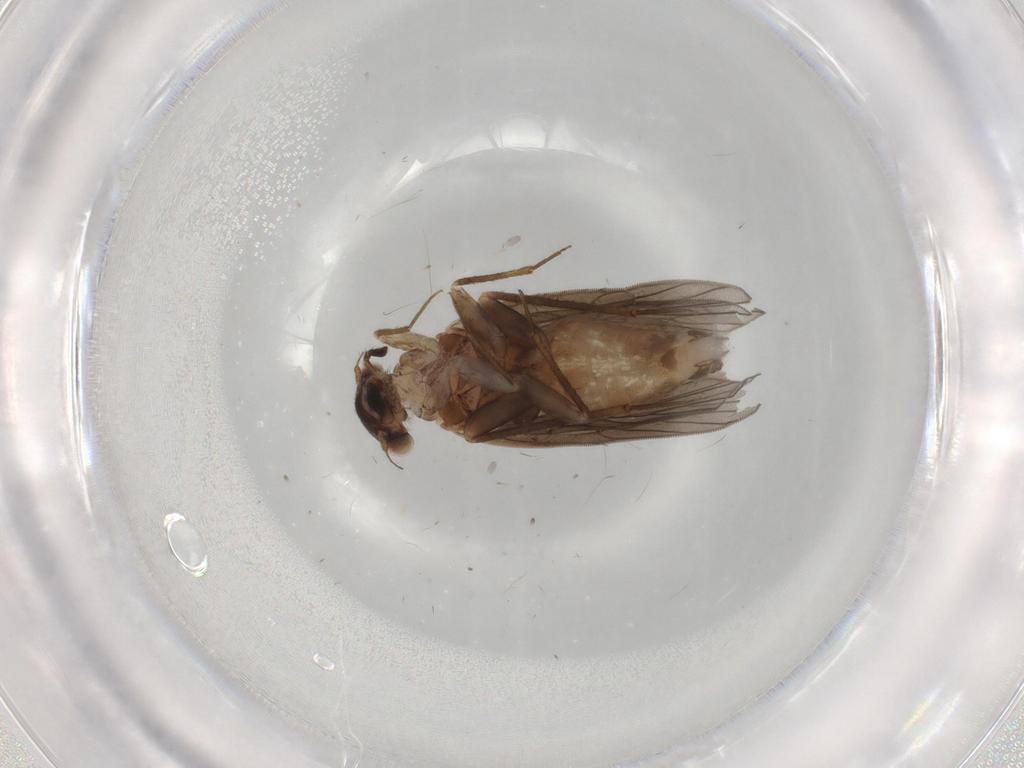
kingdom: Animalia
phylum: Arthropoda
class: Insecta
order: Psocodea
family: Lepidopsocidae
